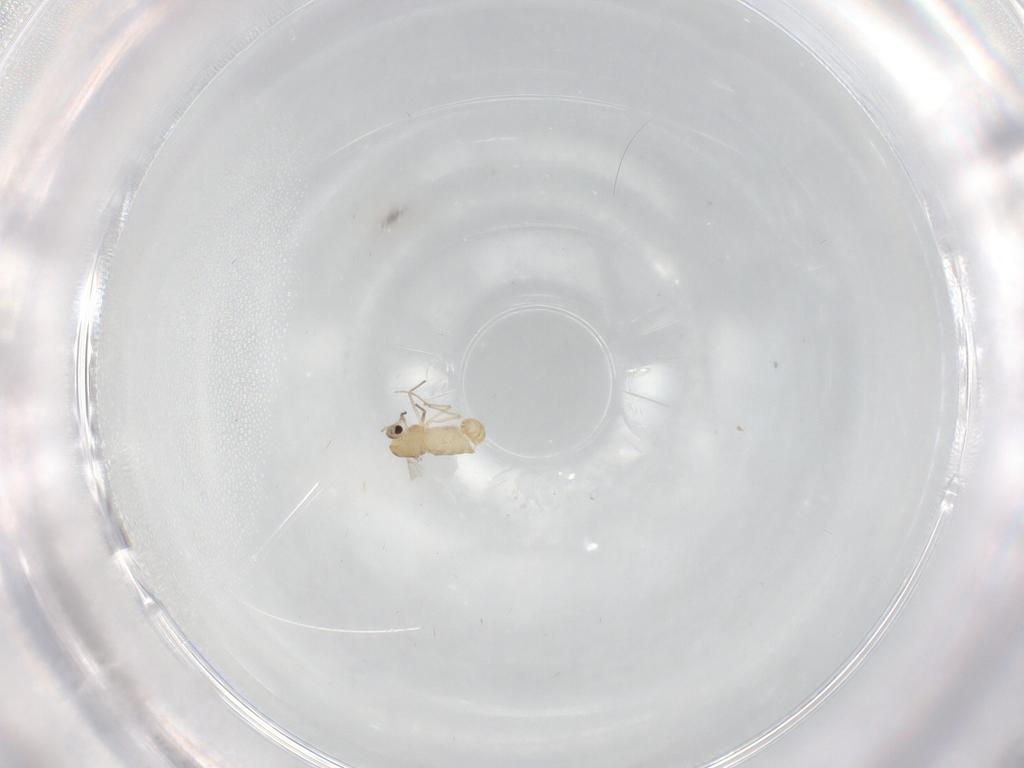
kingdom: Animalia
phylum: Arthropoda
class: Insecta
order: Diptera
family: Chironomidae
